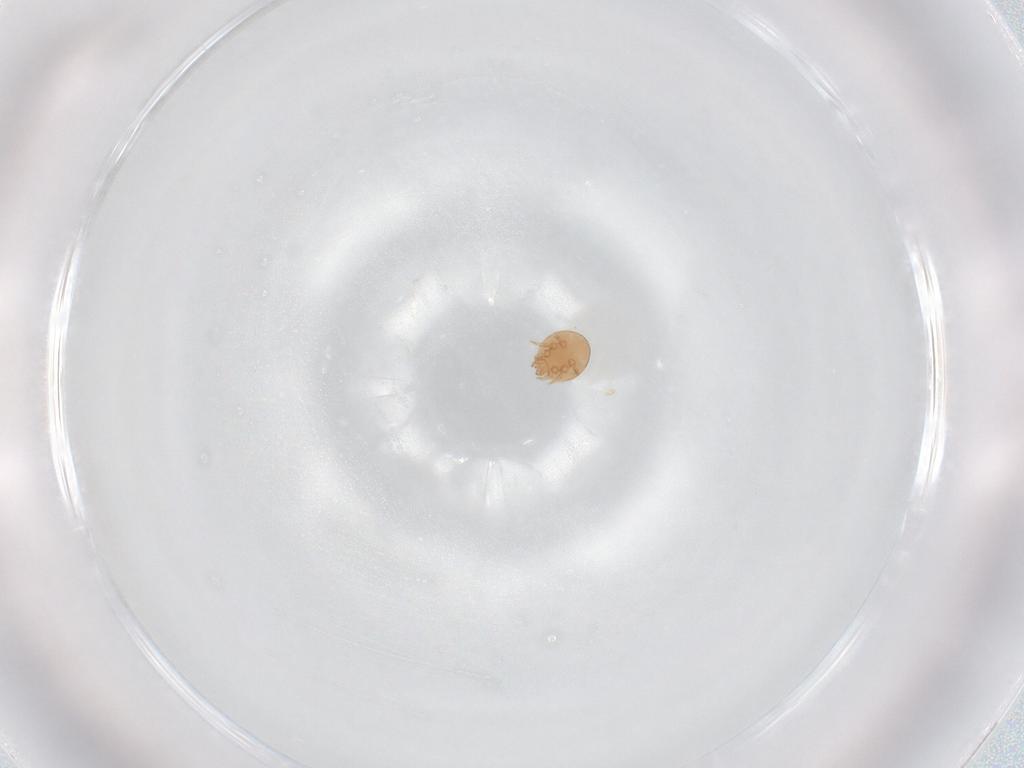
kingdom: Animalia
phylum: Arthropoda
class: Arachnida
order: Mesostigmata
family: Trematuridae
